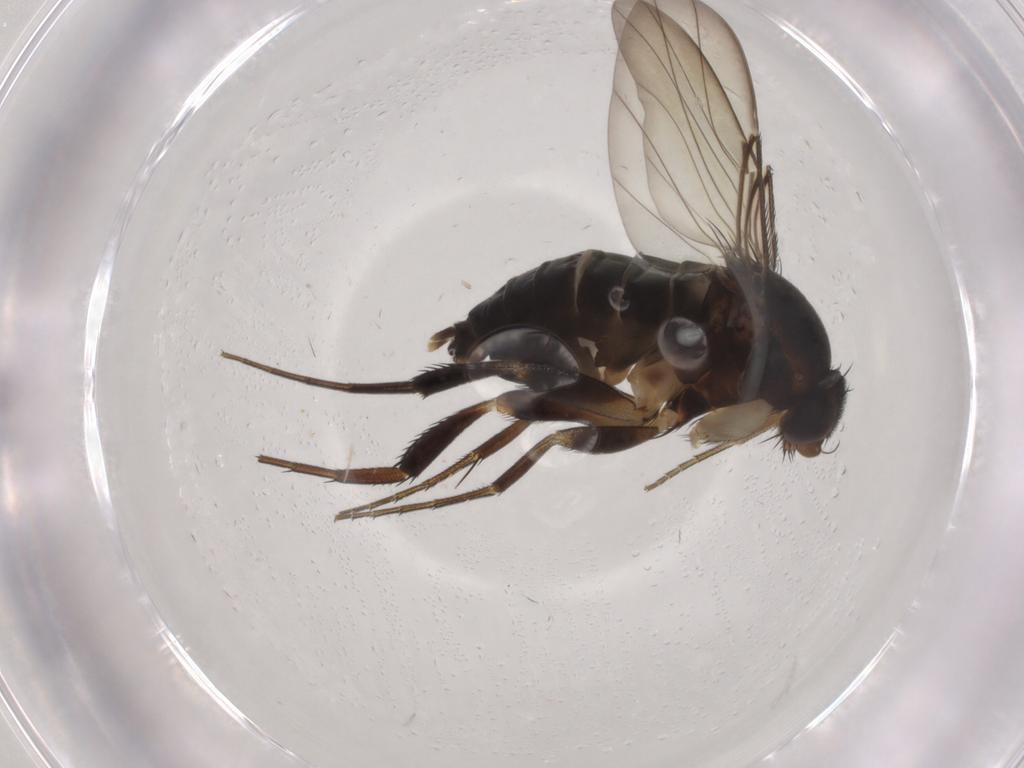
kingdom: Animalia
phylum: Arthropoda
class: Insecta
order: Diptera
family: Phoridae
